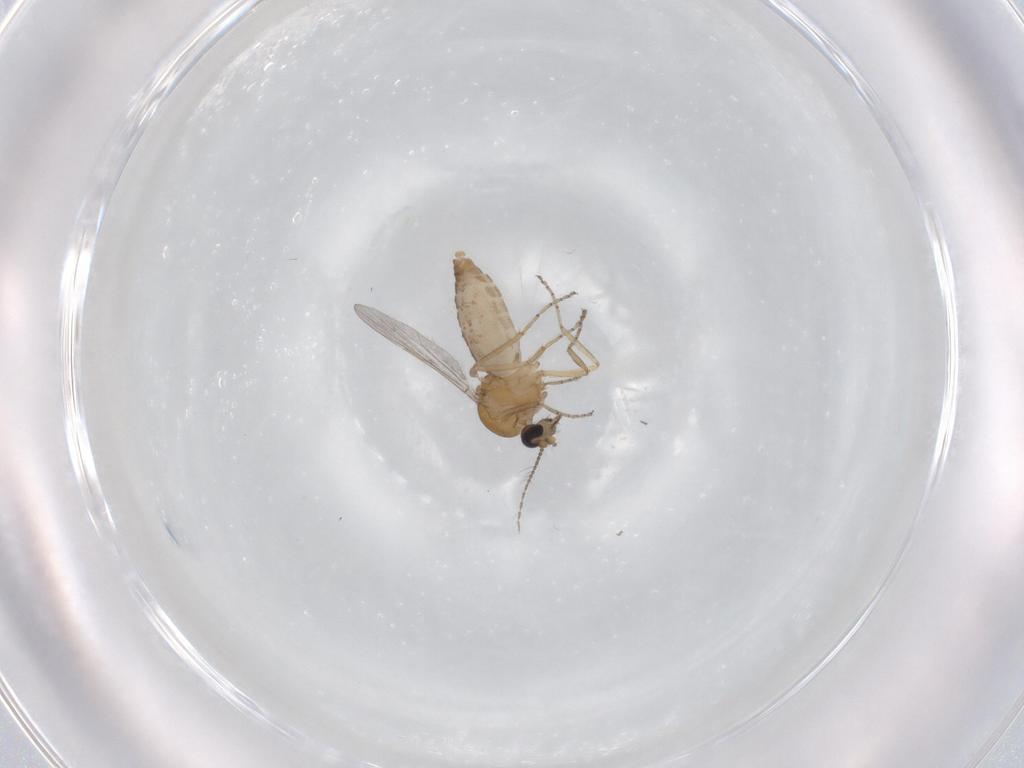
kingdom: Animalia
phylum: Arthropoda
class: Insecta
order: Diptera
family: Ceratopogonidae
